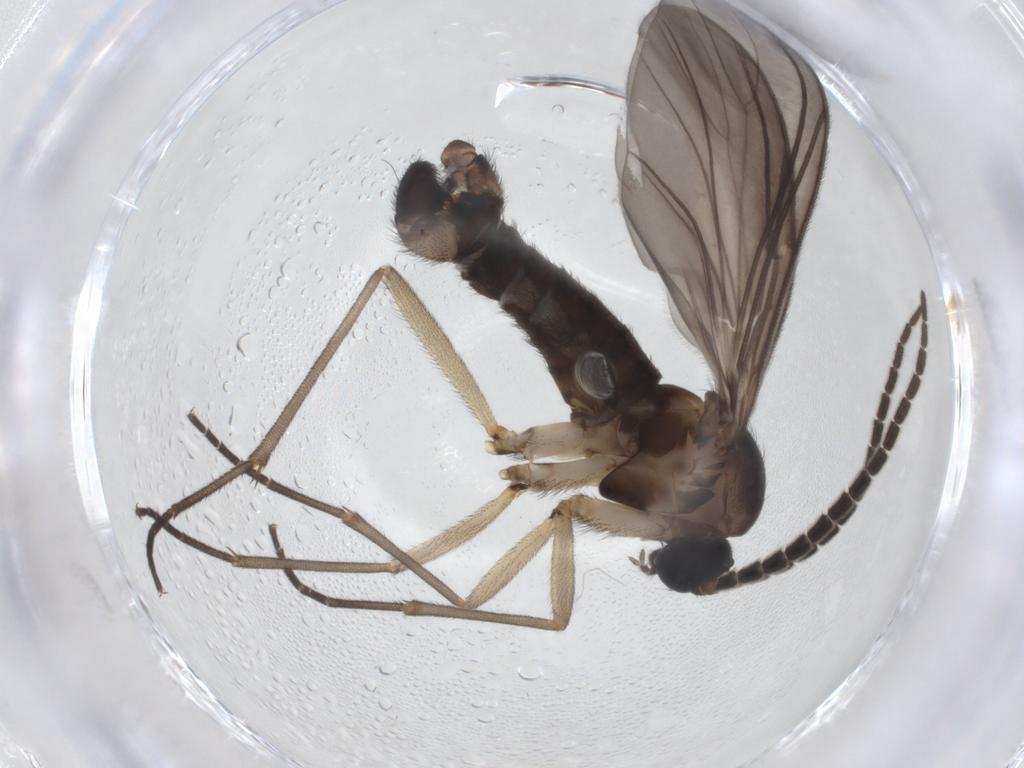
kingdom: Animalia
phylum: Arthropoda
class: Insecta
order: Diptera
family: Sciaridae
